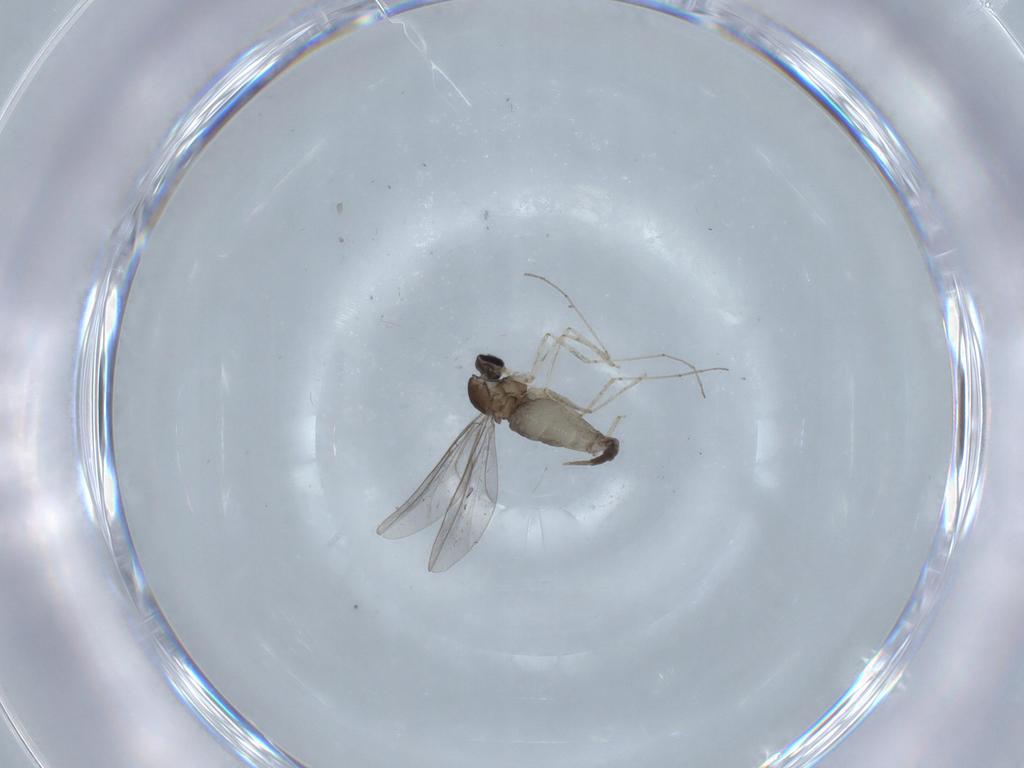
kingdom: Animalia
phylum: Arthropoda
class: Insecta
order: Diptera
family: Cecidomyiidae
